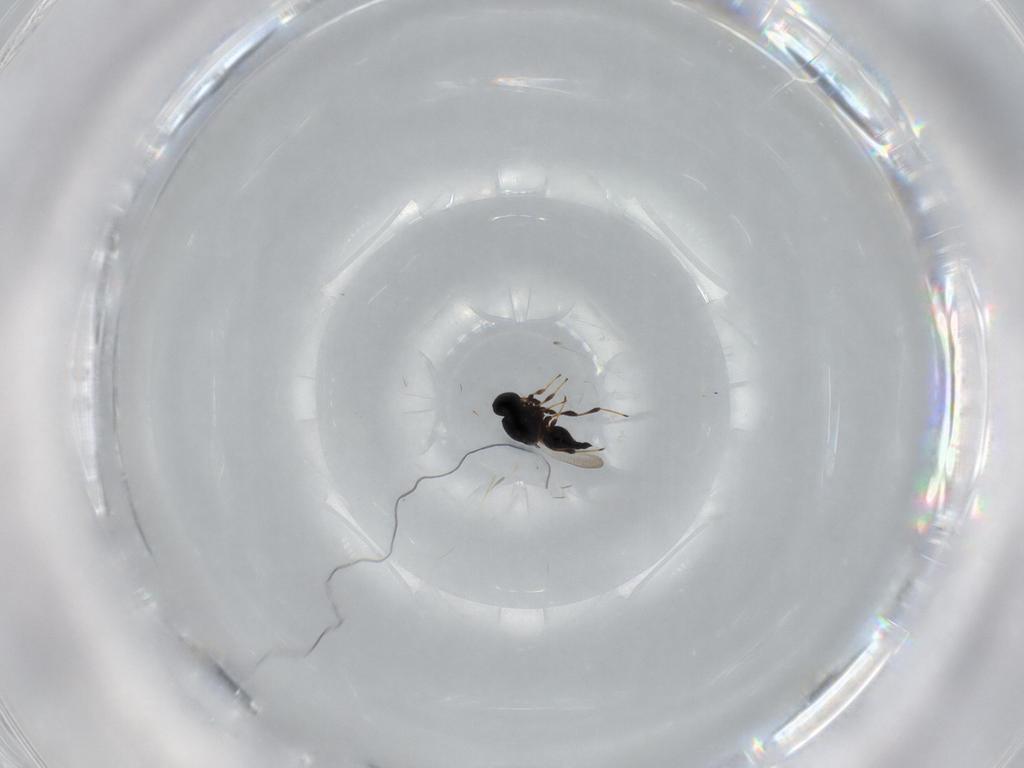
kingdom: Animalia
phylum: Arthropoda
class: Insecta
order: Hymenoptera
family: Platygastridae
